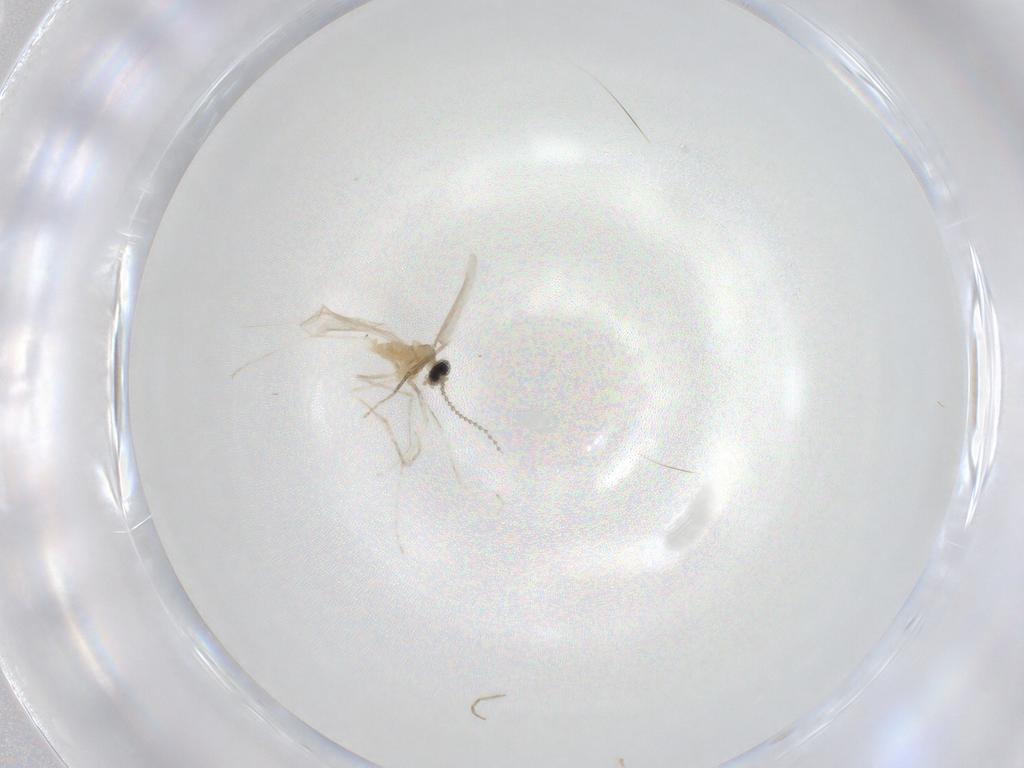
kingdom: Animalia
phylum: Arthropoda
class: Insecta
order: Diptera
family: Cecidomyiidae
